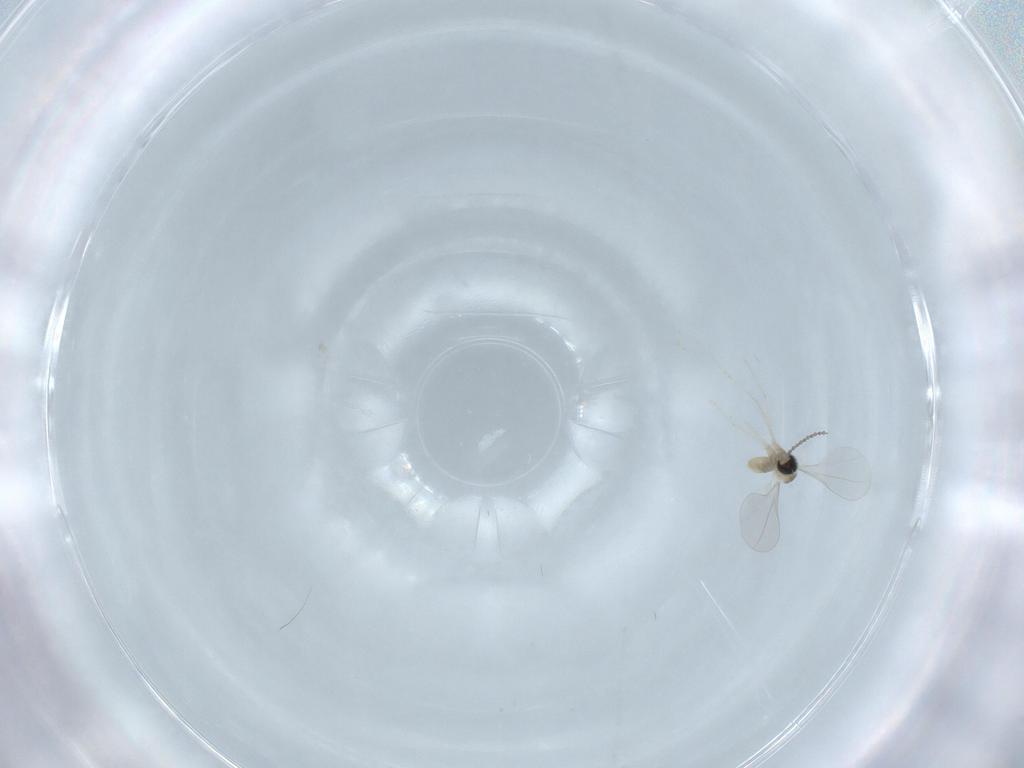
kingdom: Animalia
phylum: Arthropoda
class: Insecta
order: Diptera
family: Cecidomyiidae
